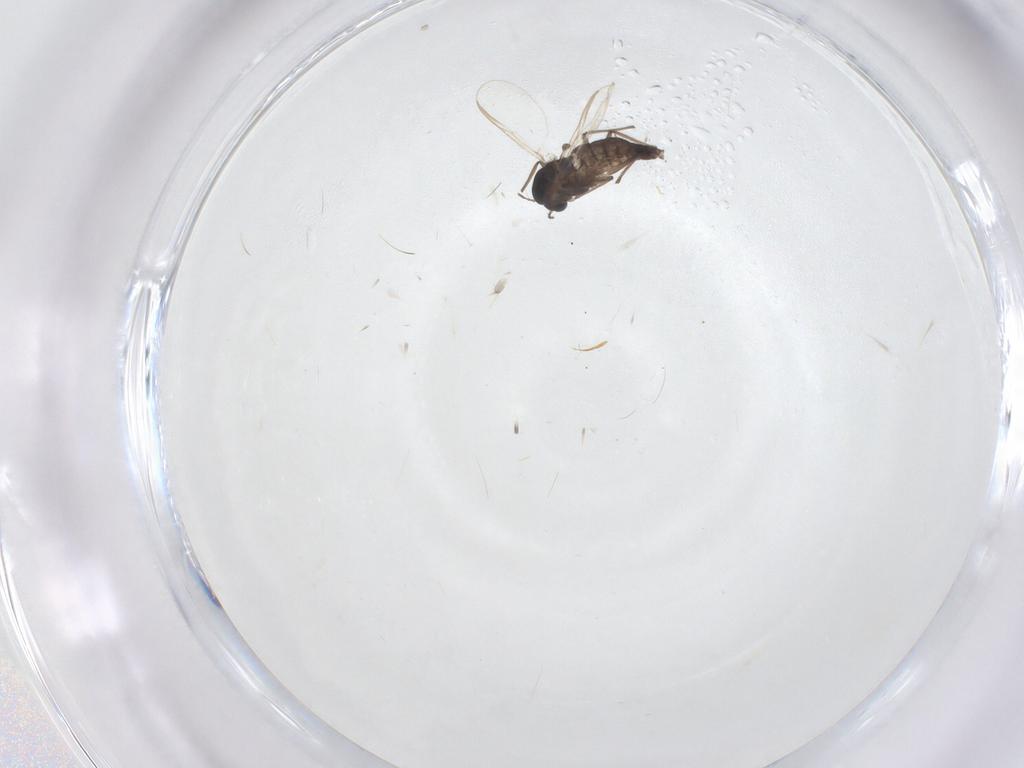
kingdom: Animalia
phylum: Arthropoda
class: Insecta
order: Diptera
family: Chironomidae
